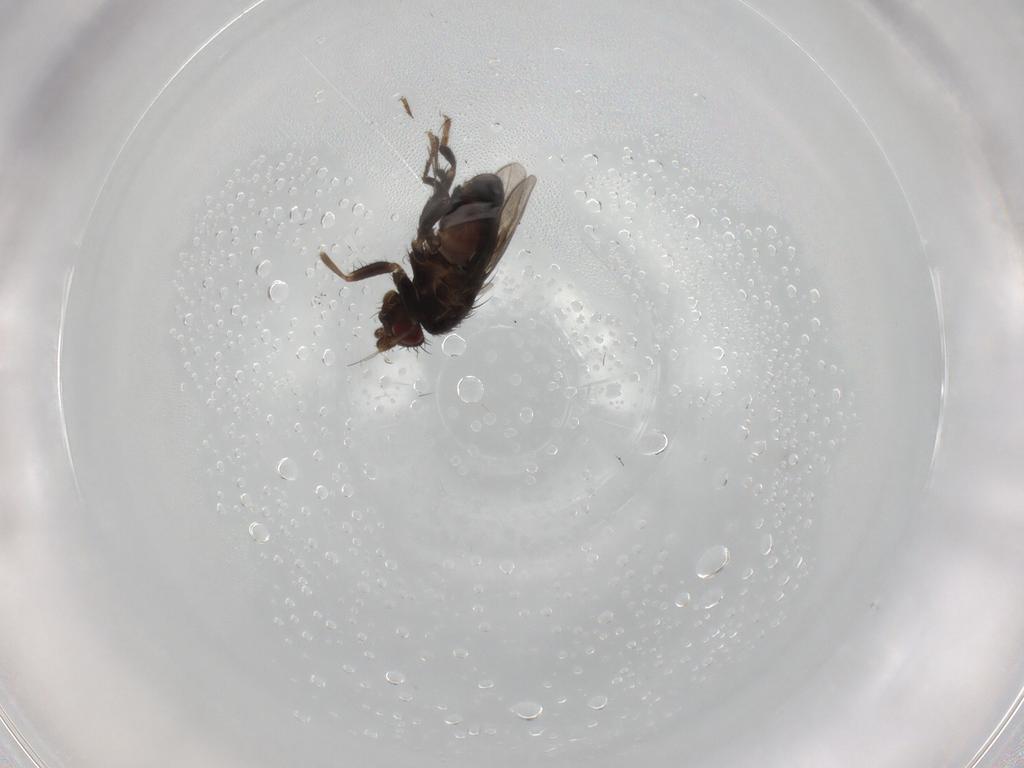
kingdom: Animalia
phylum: Arthropoda
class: Insecta
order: Diptera
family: Sphaeroceridae
